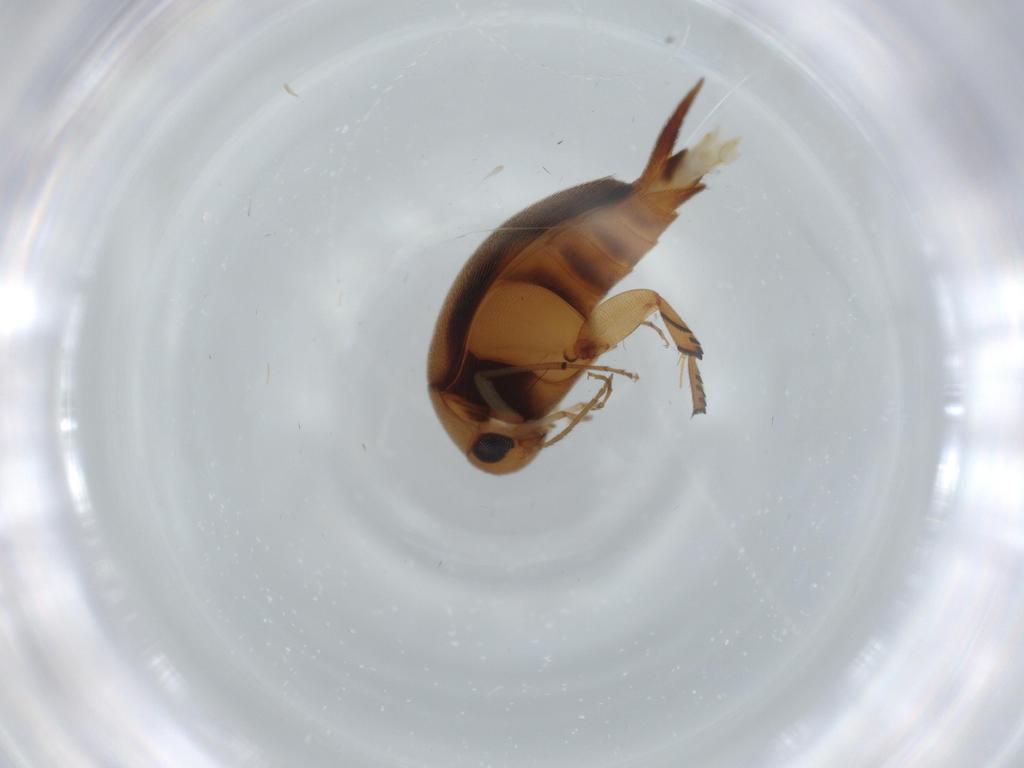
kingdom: Animalia
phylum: Arthropoda
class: Insecta
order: Coleoptera
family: Mordellidae
